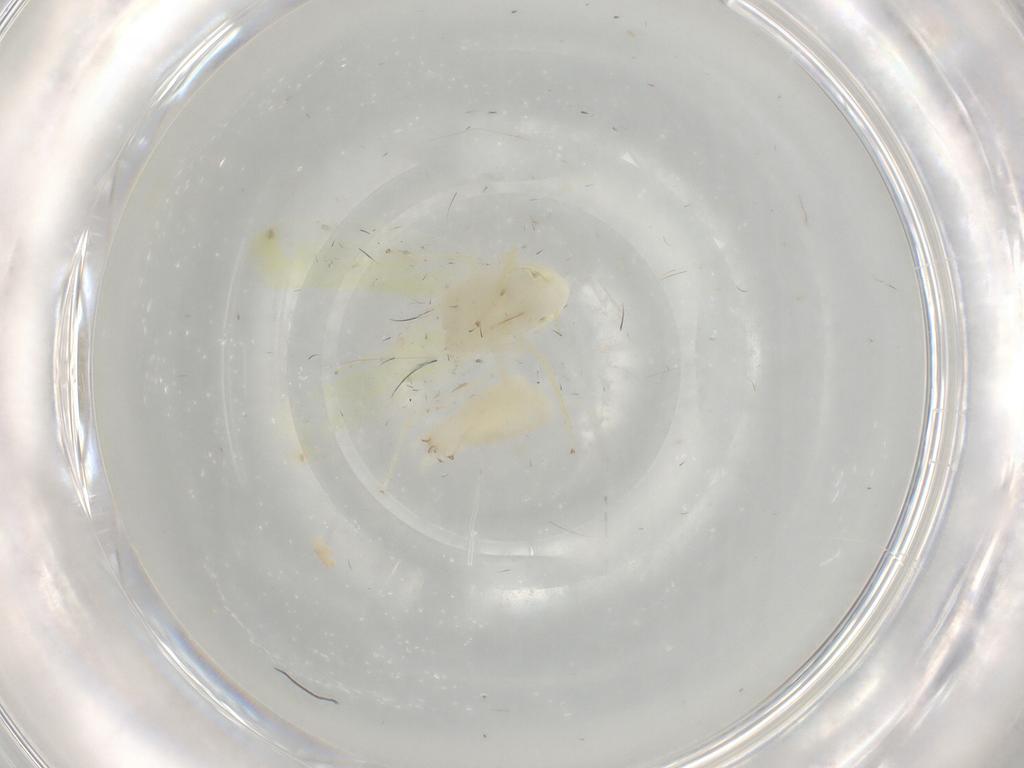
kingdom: Animalia
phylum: Arthropoda
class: Insecta
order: Hemiptera
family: Cicadellidae
